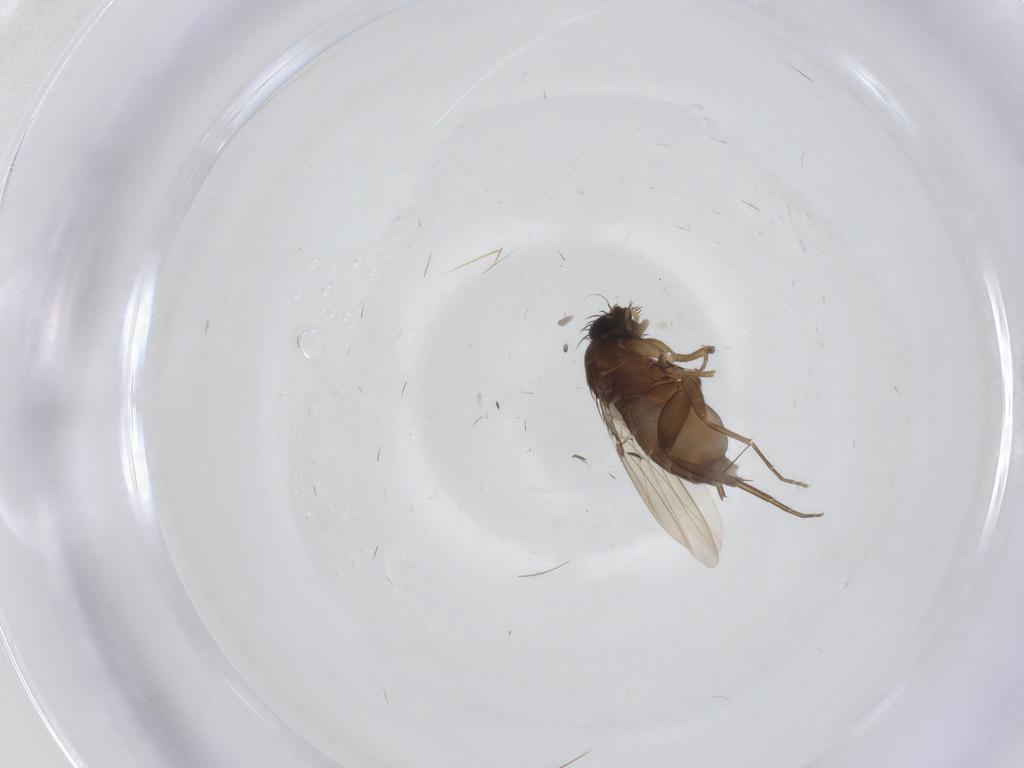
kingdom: Animalia
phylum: Arthropoda
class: Insecta
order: Diptera
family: Phoridae
